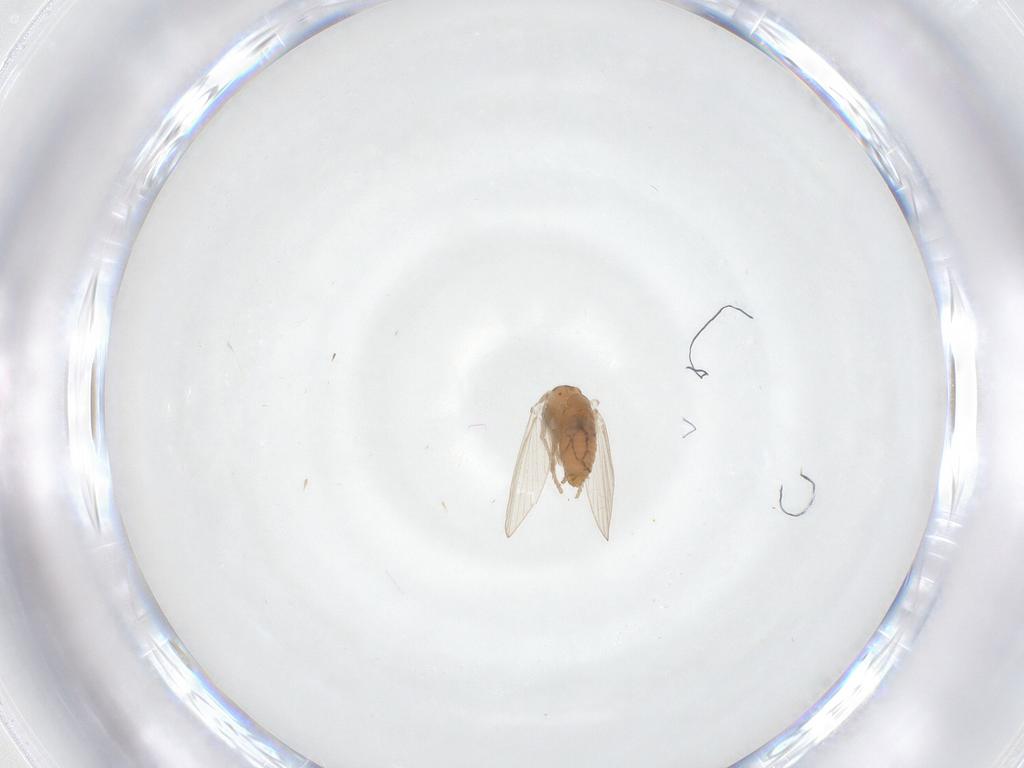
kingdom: Animalia
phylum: Arthropoda
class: Insecta
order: Diptera
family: Psychodidae
